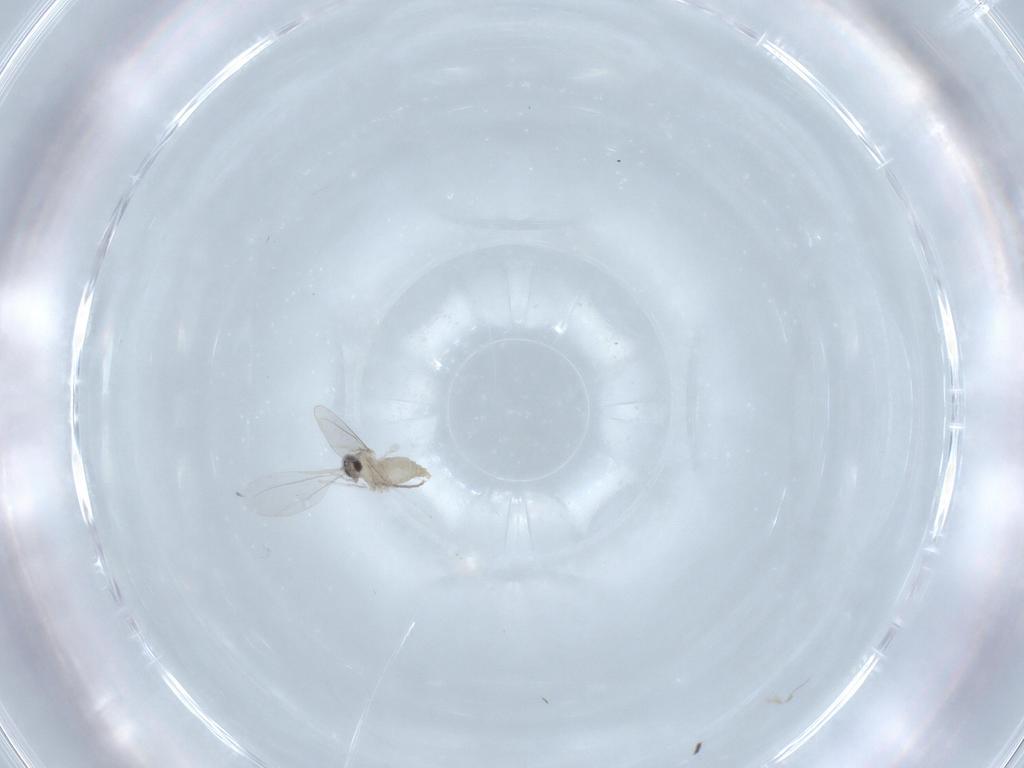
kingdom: Animalia
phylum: Arthropoda
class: Insecta
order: Diptera
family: Cecidomyiidae
